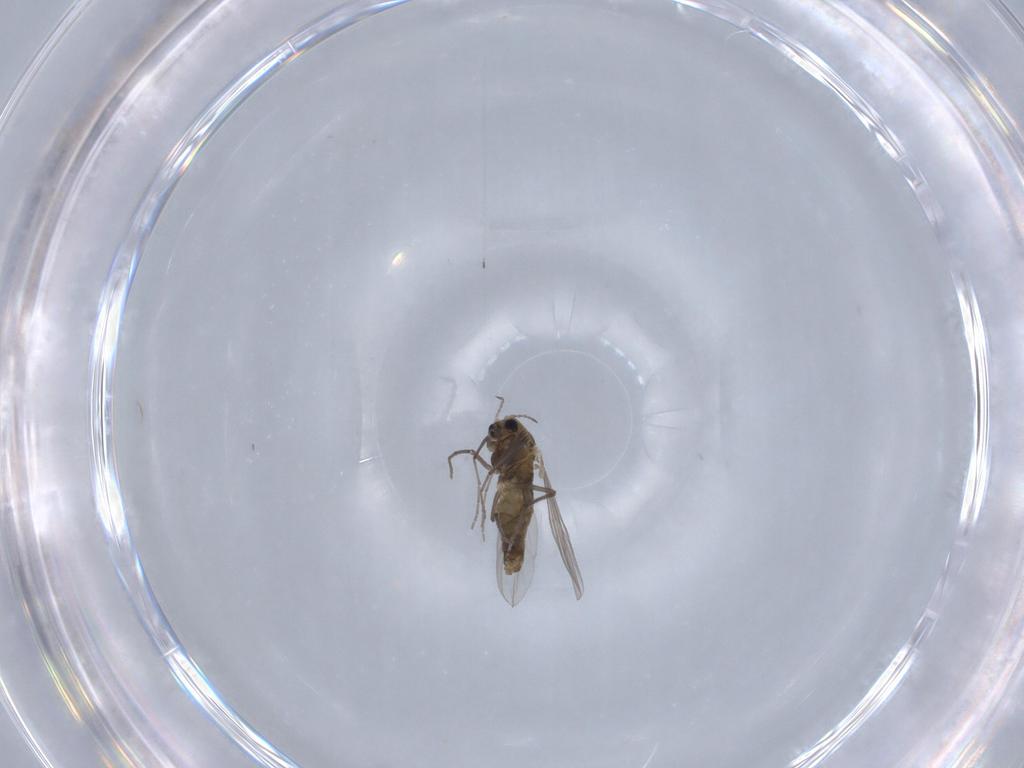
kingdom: Animalia
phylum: Arthropoda
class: Insecta
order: Diptera
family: Chironomidae
